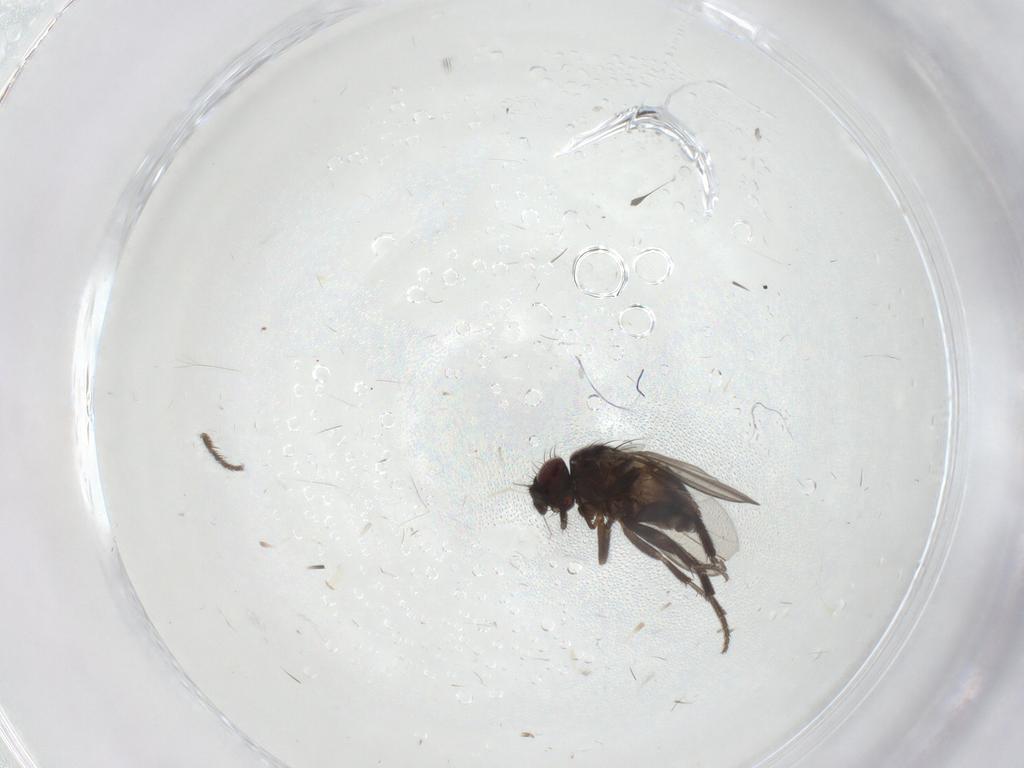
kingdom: Animalia
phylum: Arthropoda
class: Insecta
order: Diptera
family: Milichiidae
